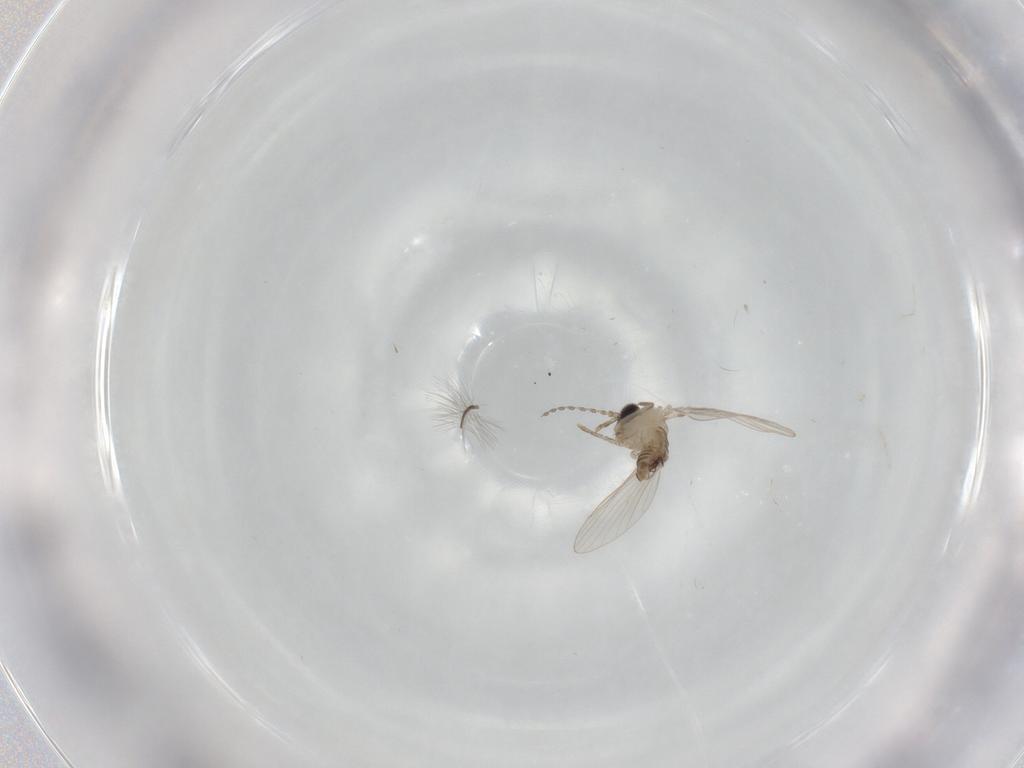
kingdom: Animalia
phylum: Arthropoda
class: Insecta
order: Diptera
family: Psychodidae
